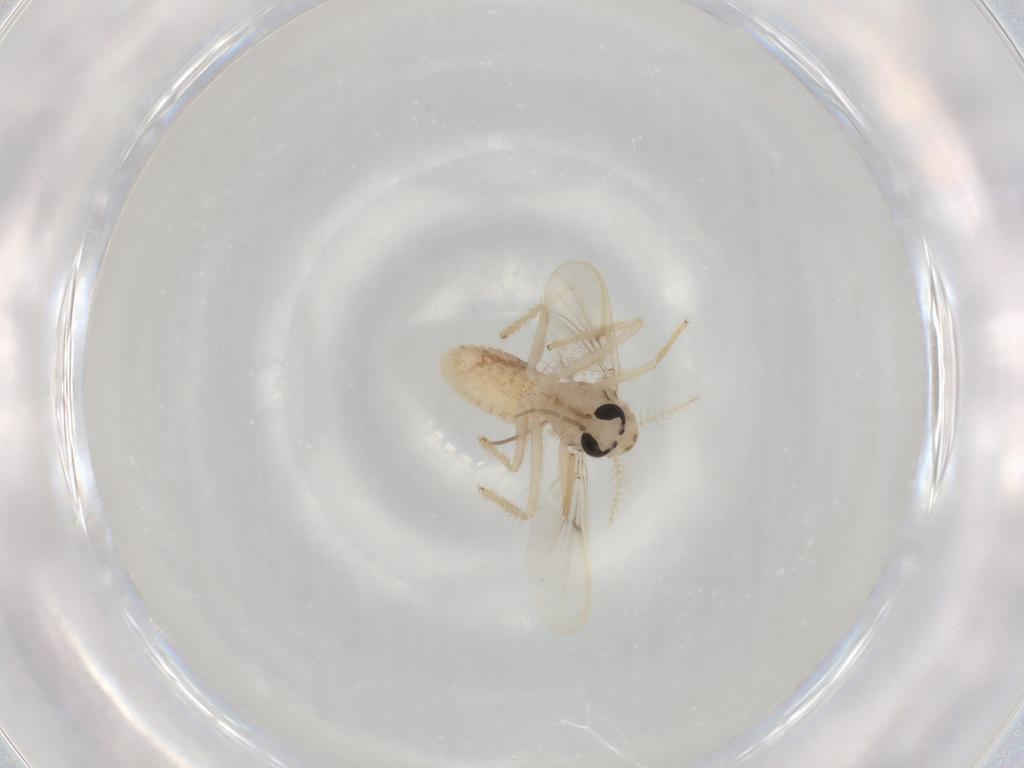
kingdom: Animalia
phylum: Arthropoda
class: Insecta
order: Diptera
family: Chironomidae
